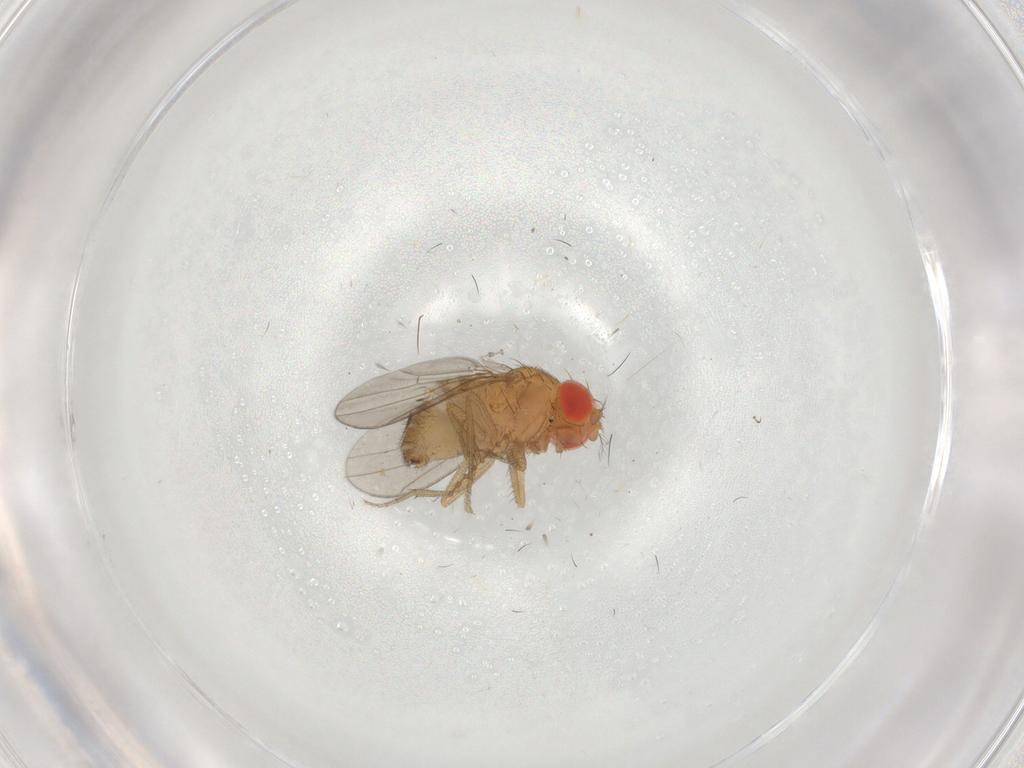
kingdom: Animalia
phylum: Arthropoda
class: Insecta
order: Diptera
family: Drosophilidae
